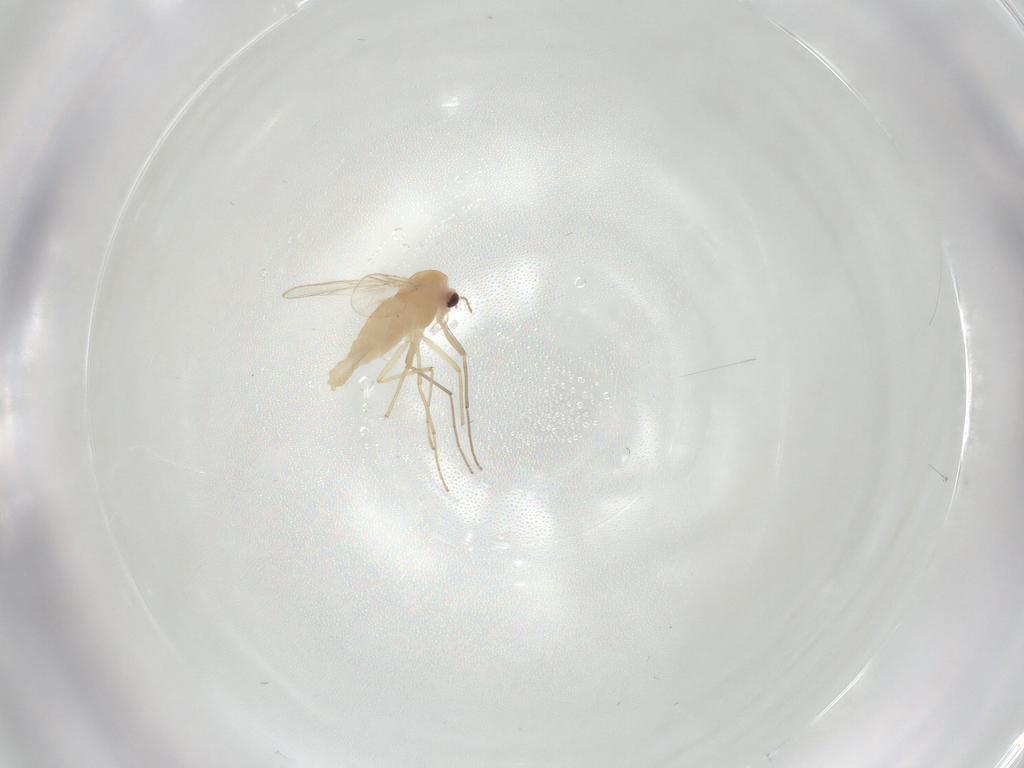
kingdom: Animalia
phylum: Arthropoda
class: Insecta
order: Diptera
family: Chironomidae
